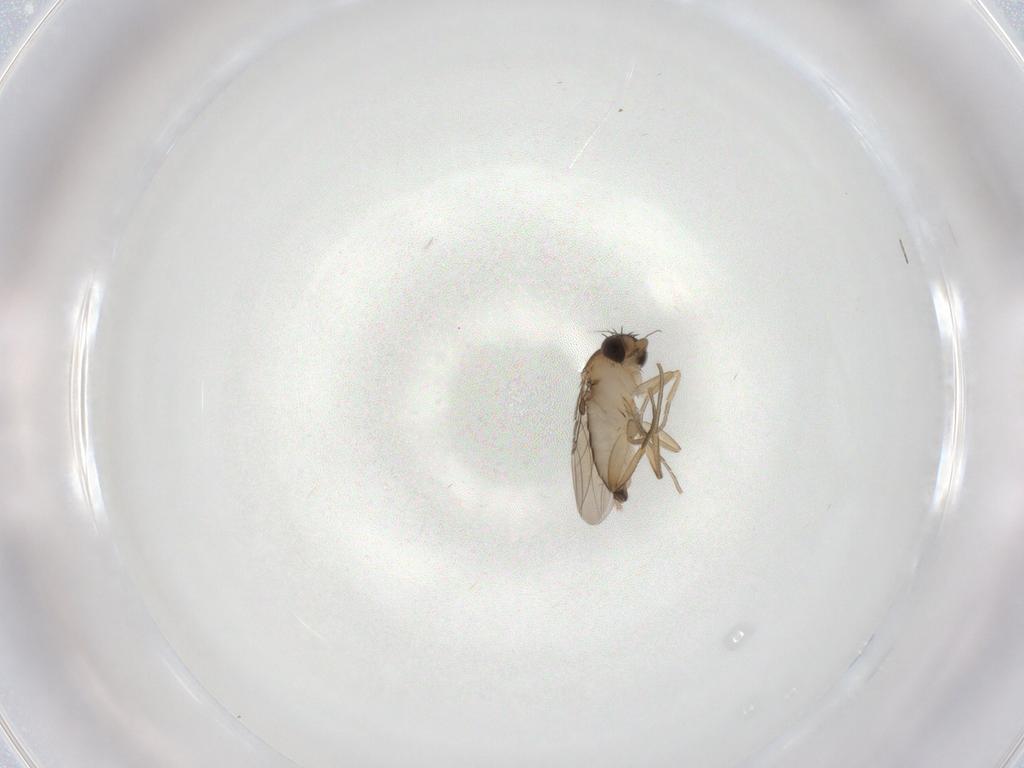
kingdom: Animalia
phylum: Arthropoda
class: Insecta
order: Diptera
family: Phoridae
